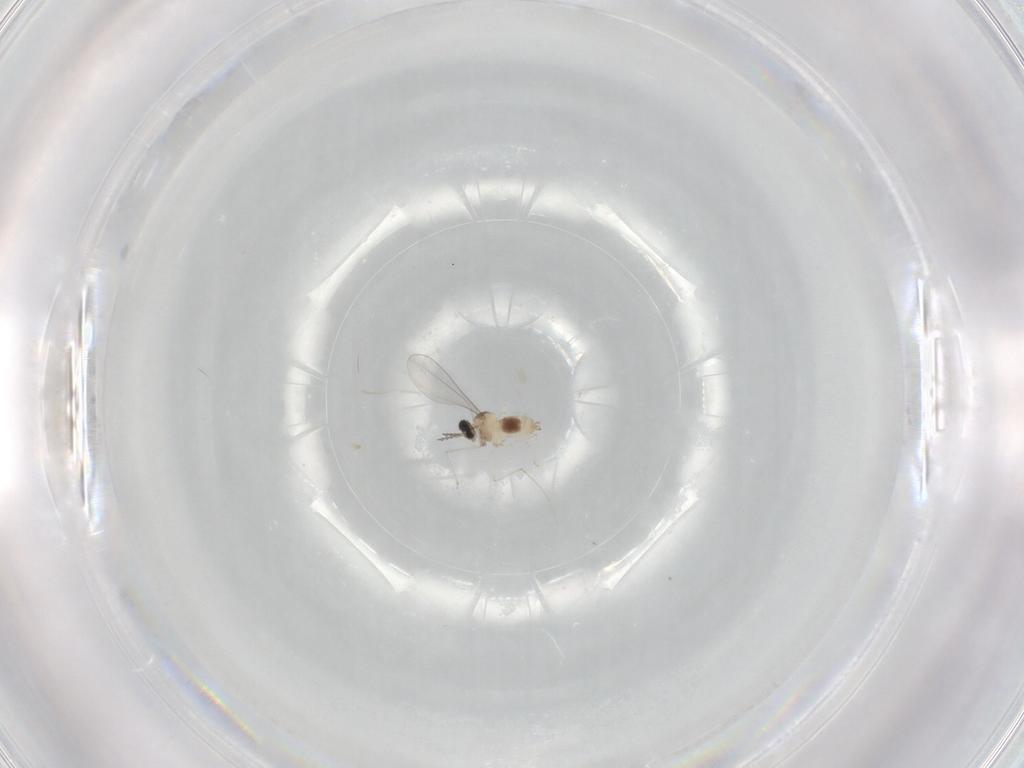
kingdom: Animalia
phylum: Arthropoda
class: Insecta
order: Diptera
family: Cecidomyiidae
